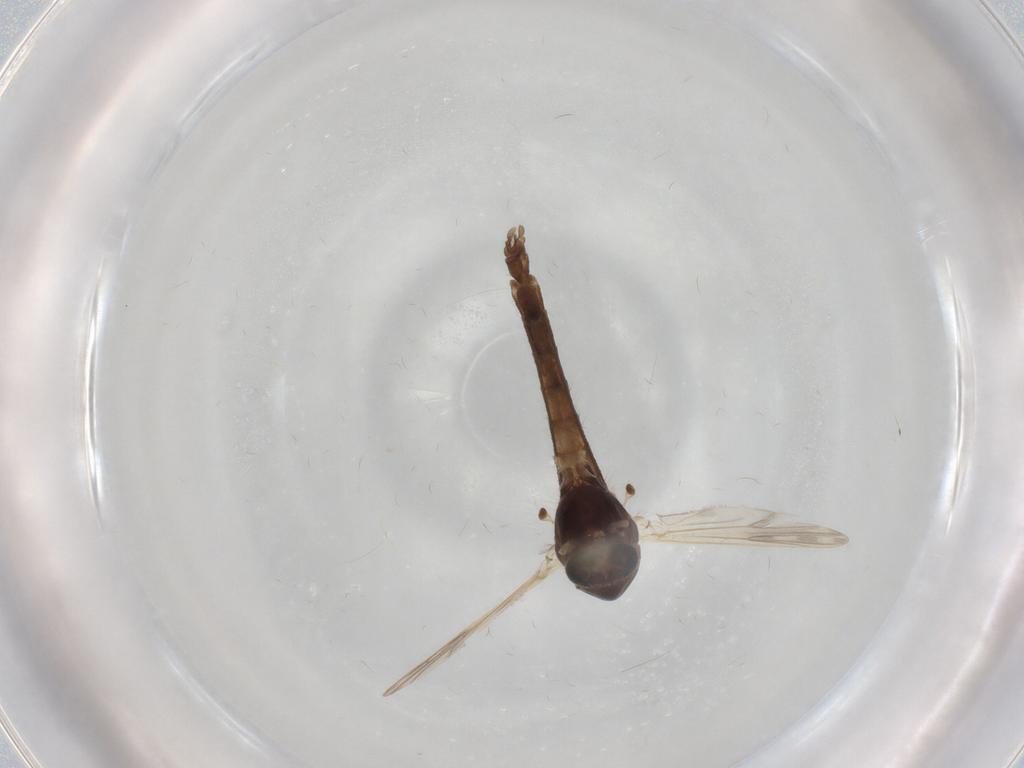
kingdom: Animalia
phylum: Arthropoda
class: Insecta
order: Diptera
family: Chironomidae
